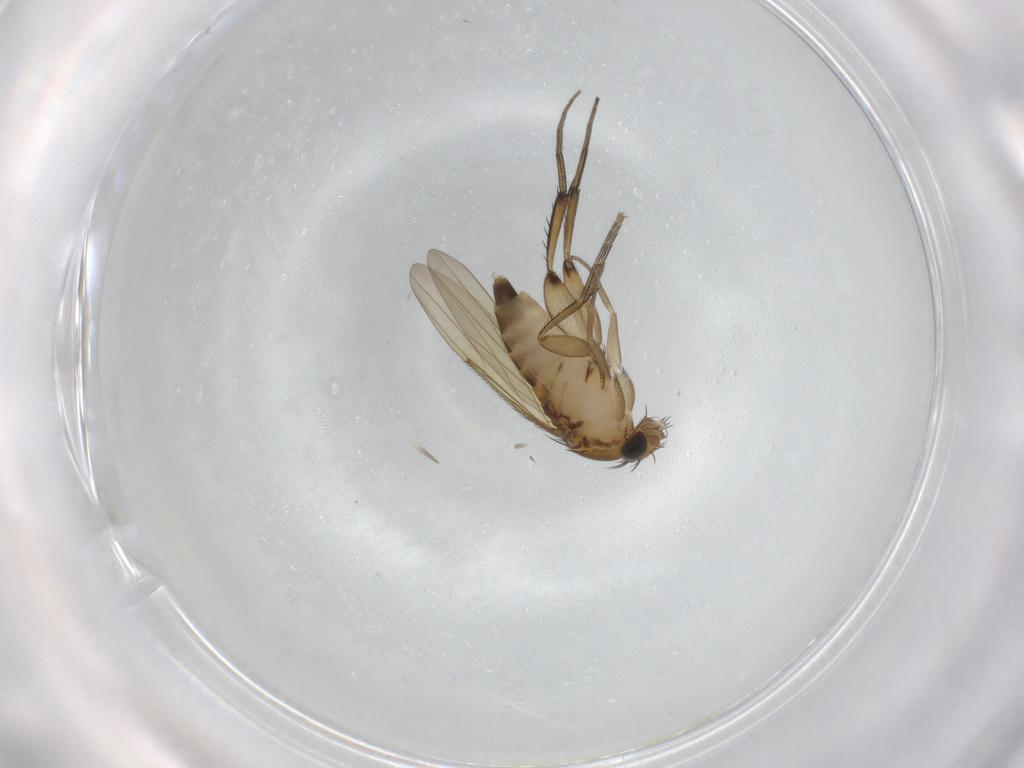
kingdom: Animalia
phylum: Arthropoda
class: Insecta
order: Diptera
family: Phoridae
